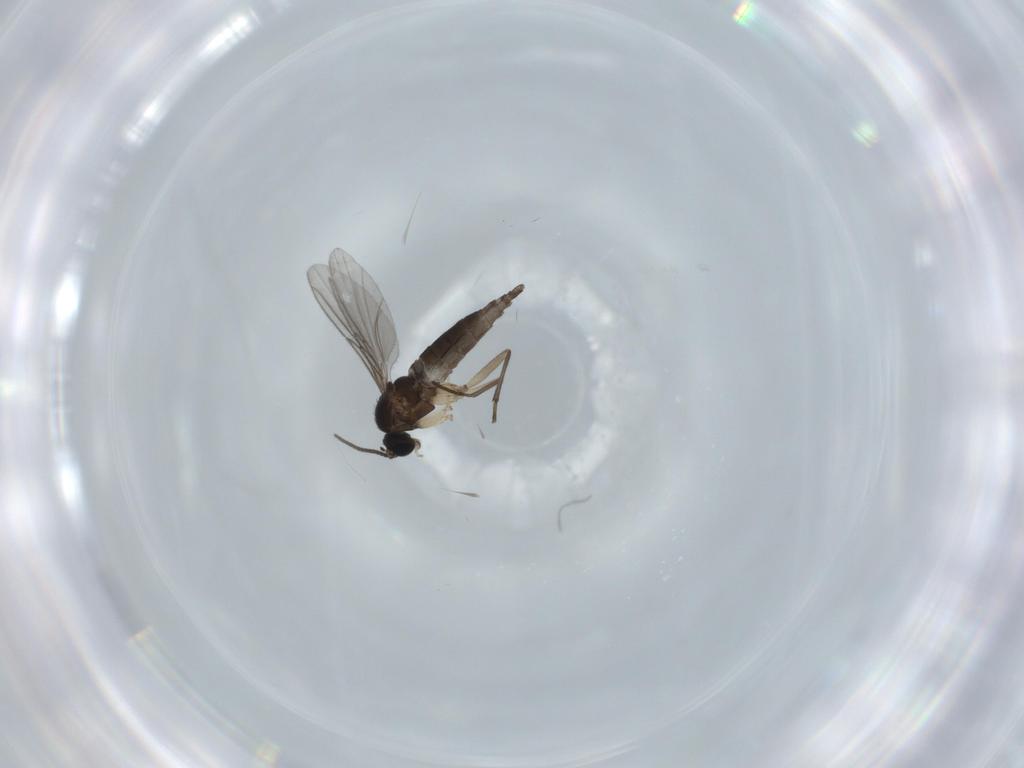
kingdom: Animalia
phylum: Arthropoda
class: Insecta
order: Diptera
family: Sciaridae
